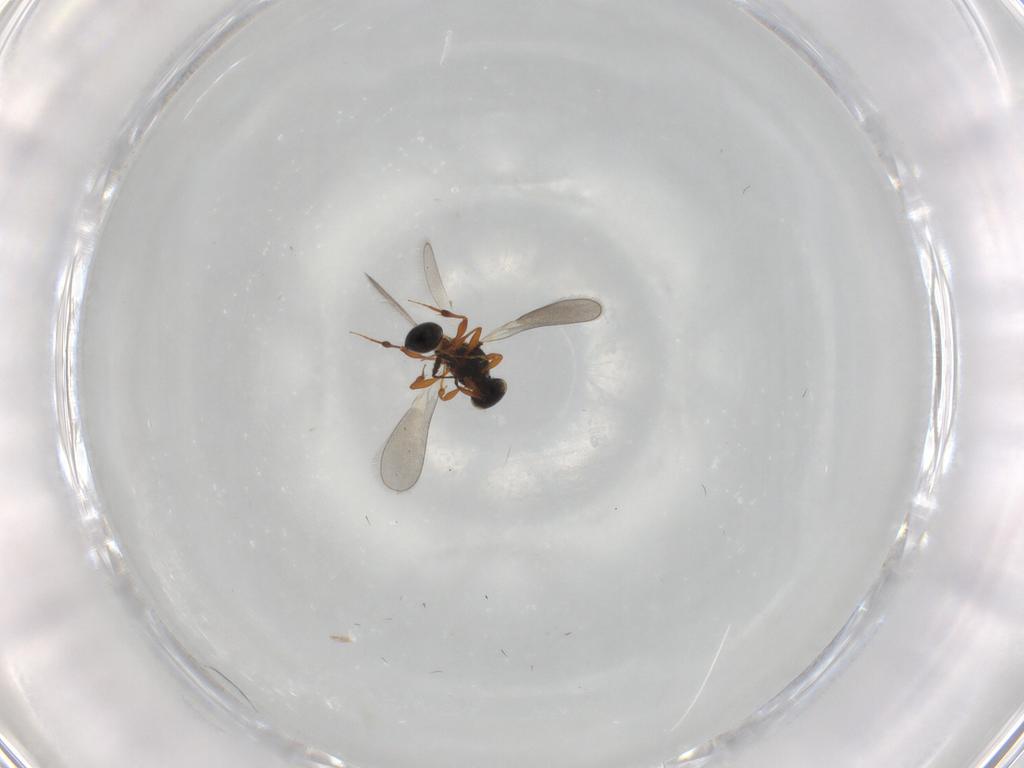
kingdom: Animalia
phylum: Arthropoda
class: Insecta
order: Hymenoptera
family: Platygastridae
